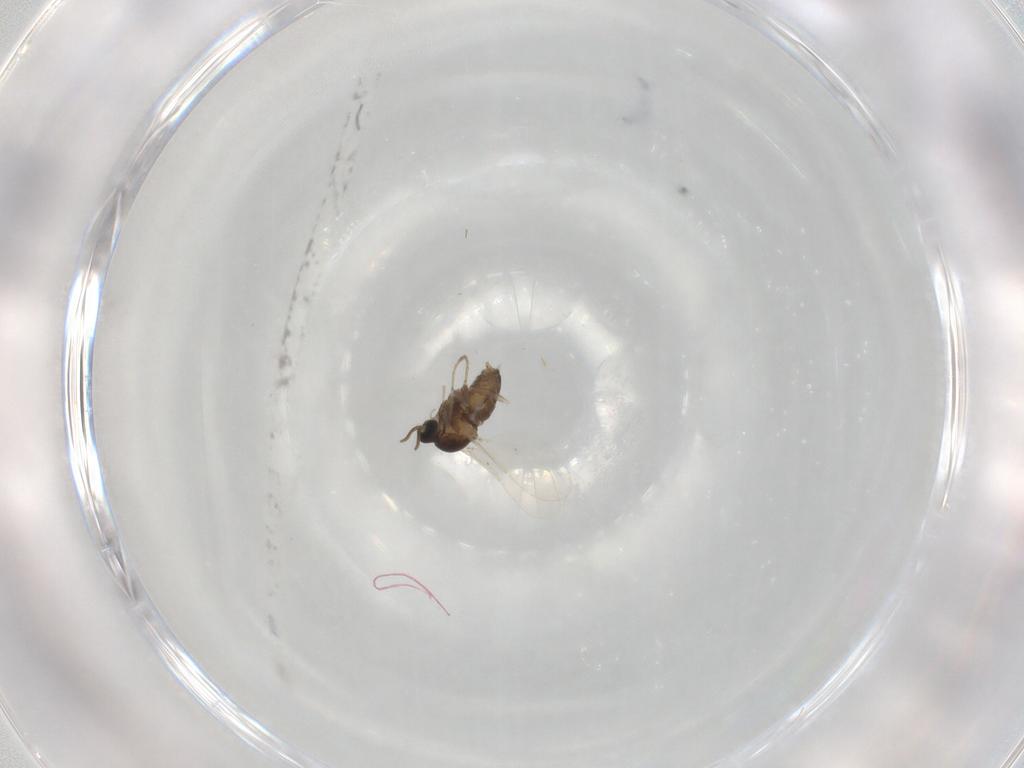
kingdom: Animalia
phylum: Arthropoda
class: Insecta
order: Diptera
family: Cecidomyiidae
